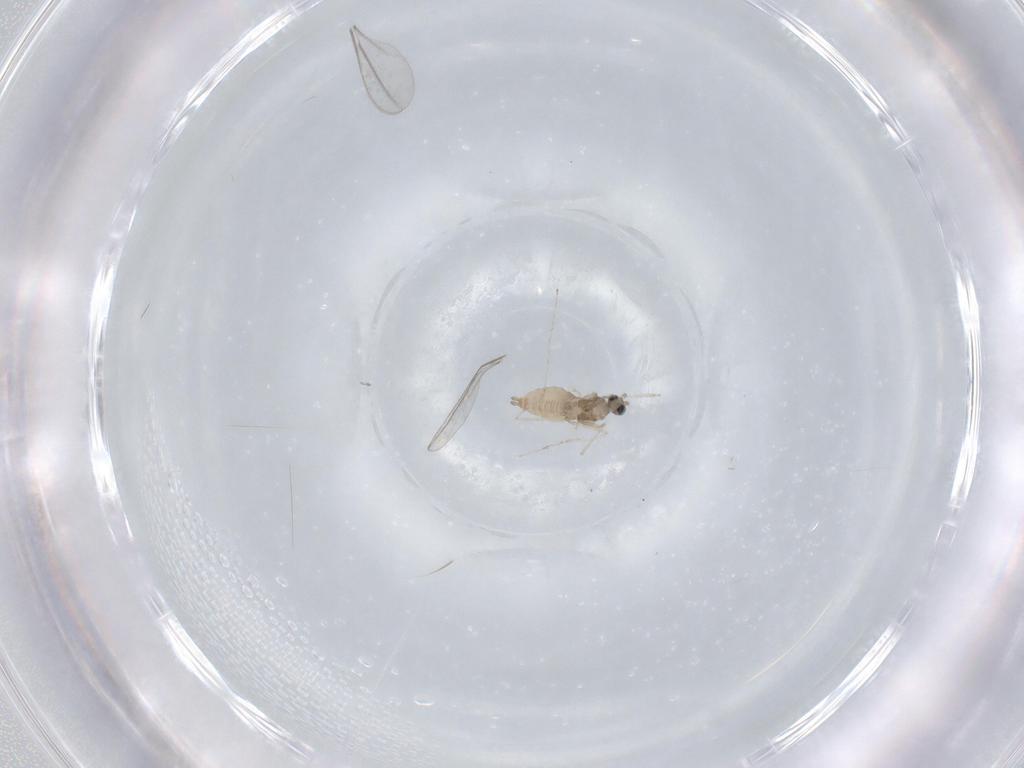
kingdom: Animalia
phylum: Arthropoda
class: Insecta
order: Diptera
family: Cecidomyiidae
